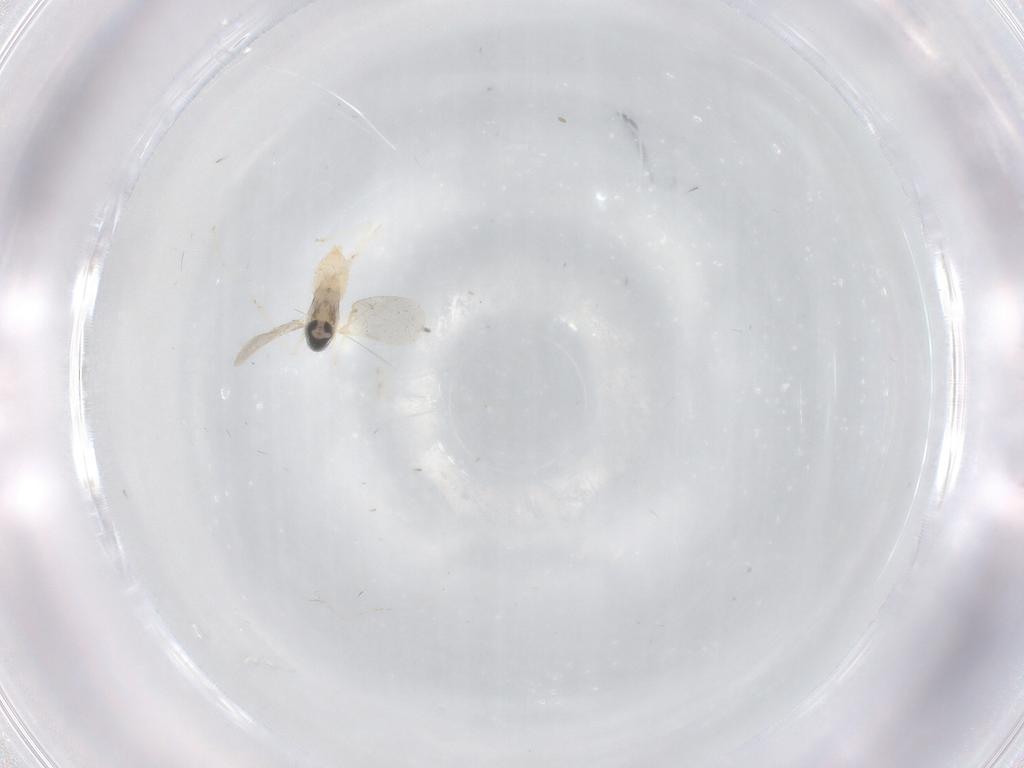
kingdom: Animalia
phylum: Arthropoda
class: Insecta
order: Diptera
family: Cecidomyiidae
